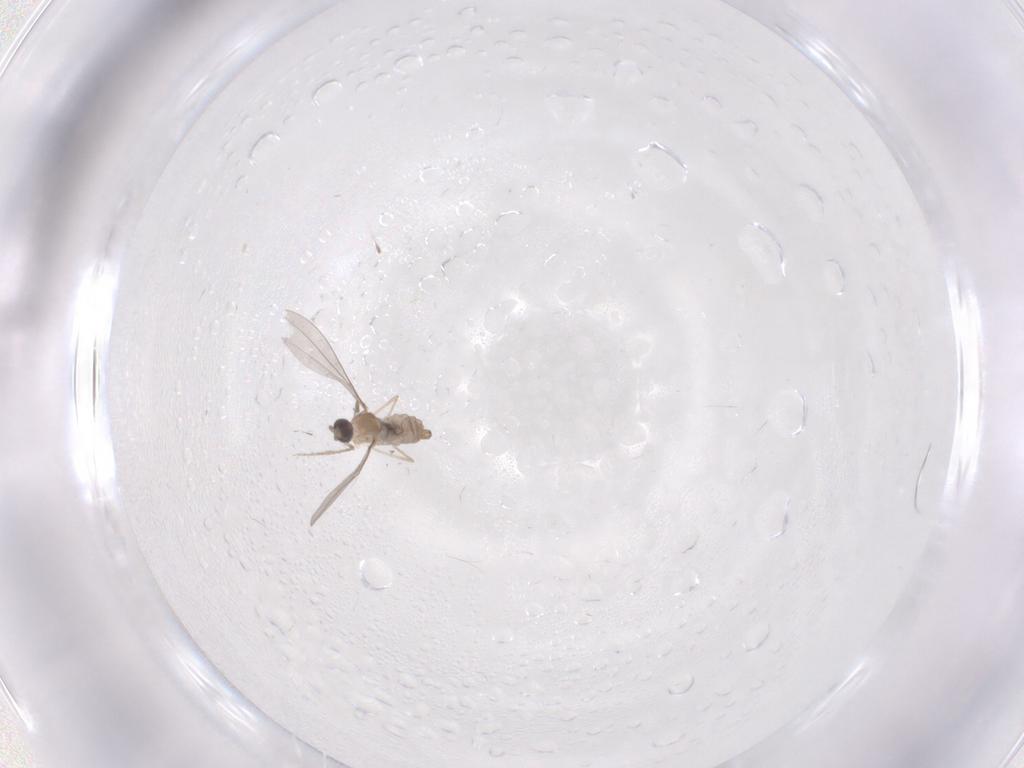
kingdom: Animalia
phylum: Arthropoda
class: Insecta
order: Diptera
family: Cecidomyiidae
